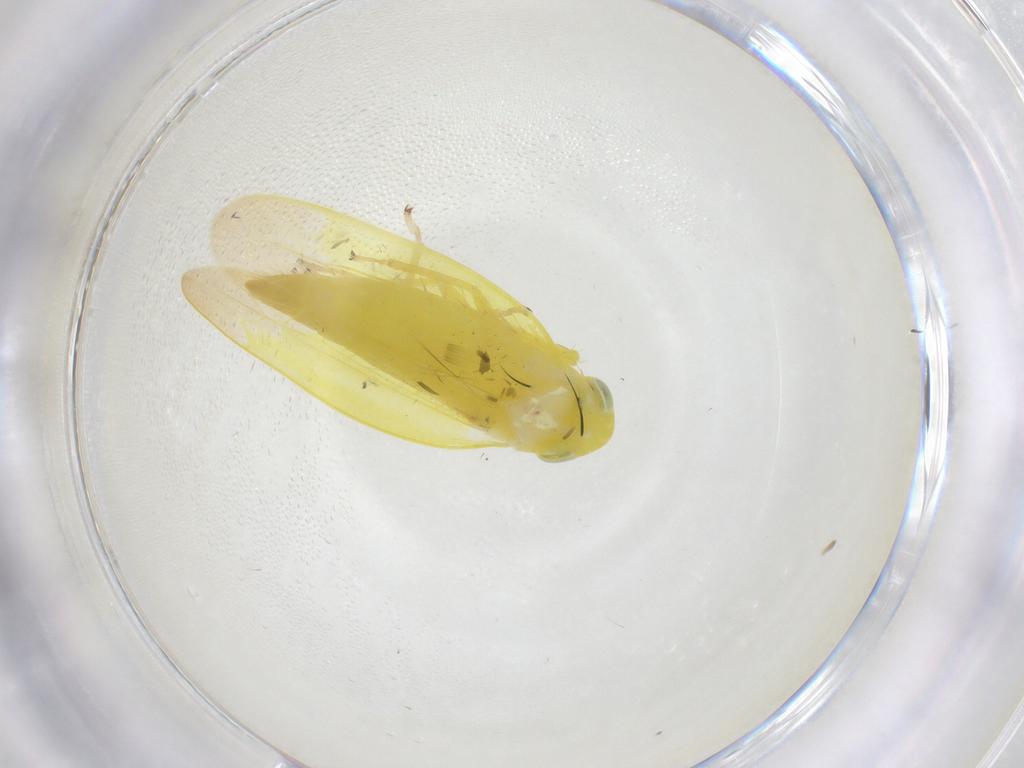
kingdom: Animalia
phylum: Arthropoda
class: Insecta
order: Hemiptera
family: Cicadellidae
